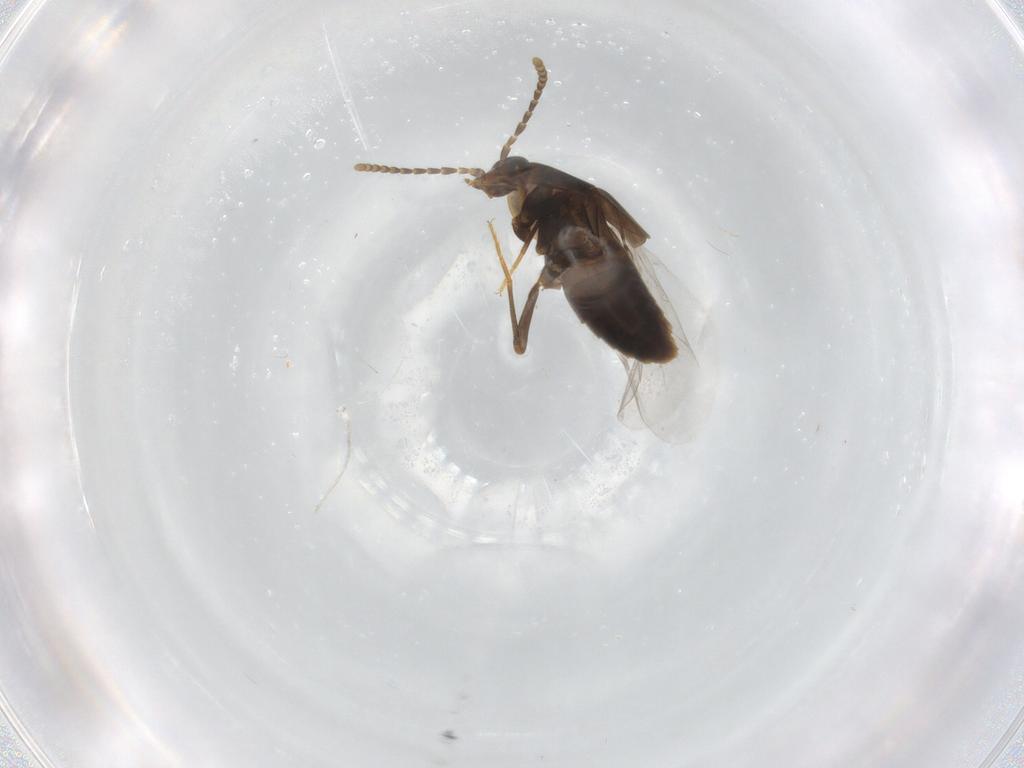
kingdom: Animalia
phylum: Arthropoda
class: Insecta
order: Coleoptera
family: Staphylinidae
